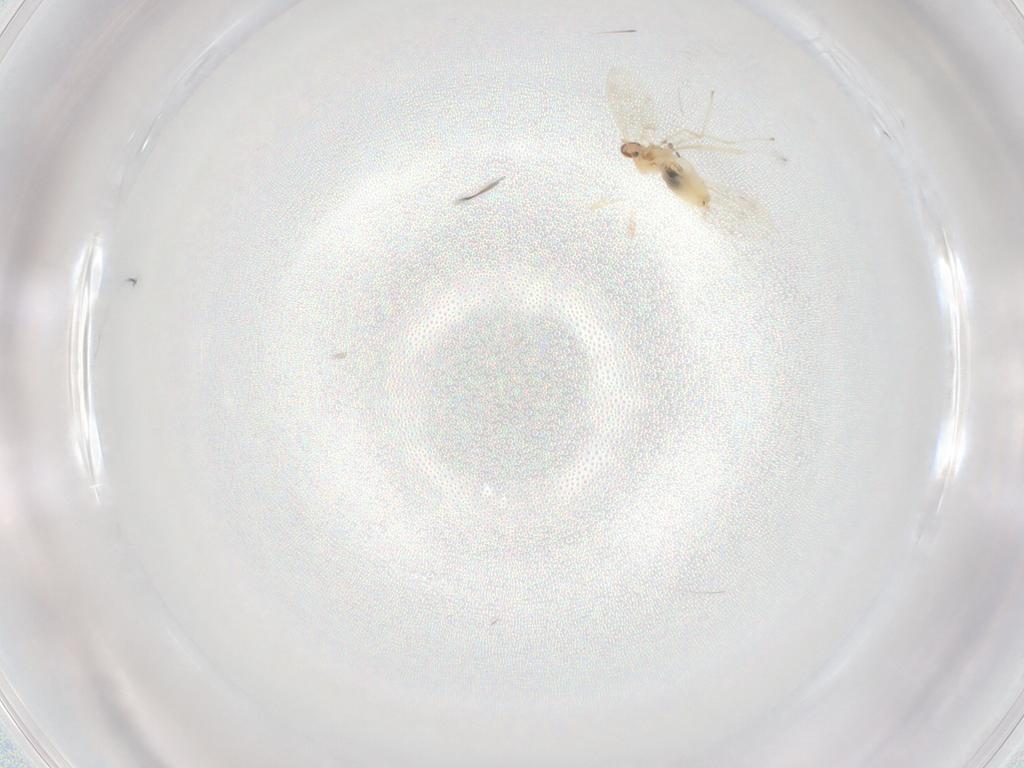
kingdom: Animalia
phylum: Arthropoda
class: Insecta
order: Diptera
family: Cecidomyiidae
